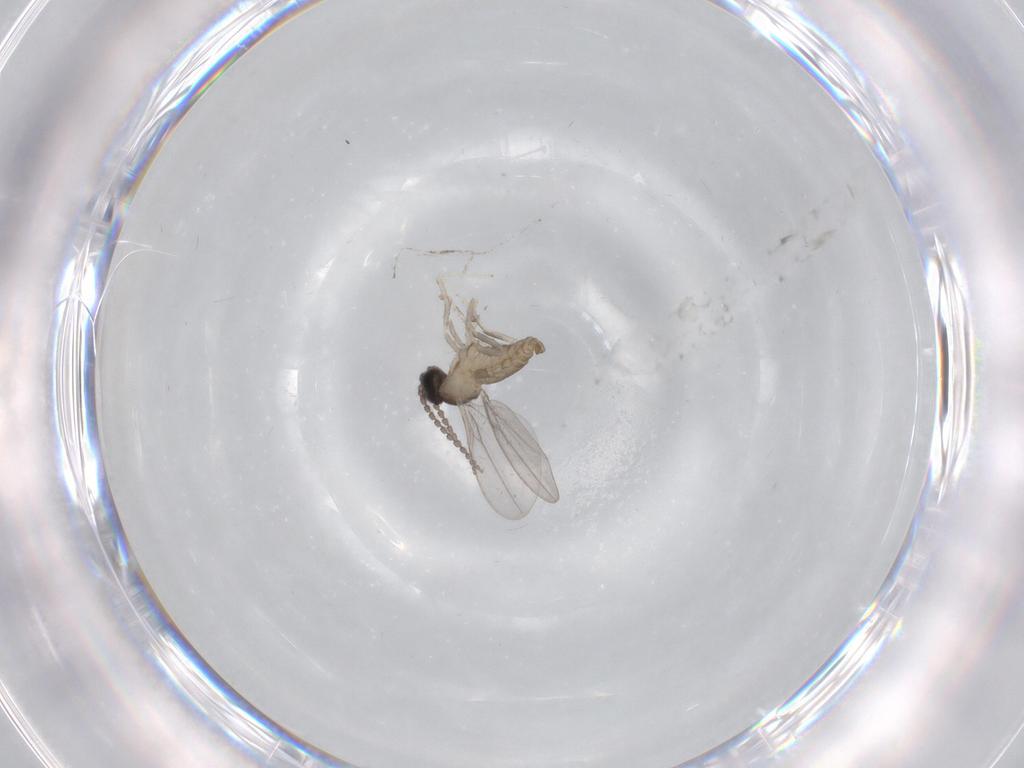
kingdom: Animalia
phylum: Arthropoda
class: Insecta
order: Diptera
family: Cecidomyiidae
